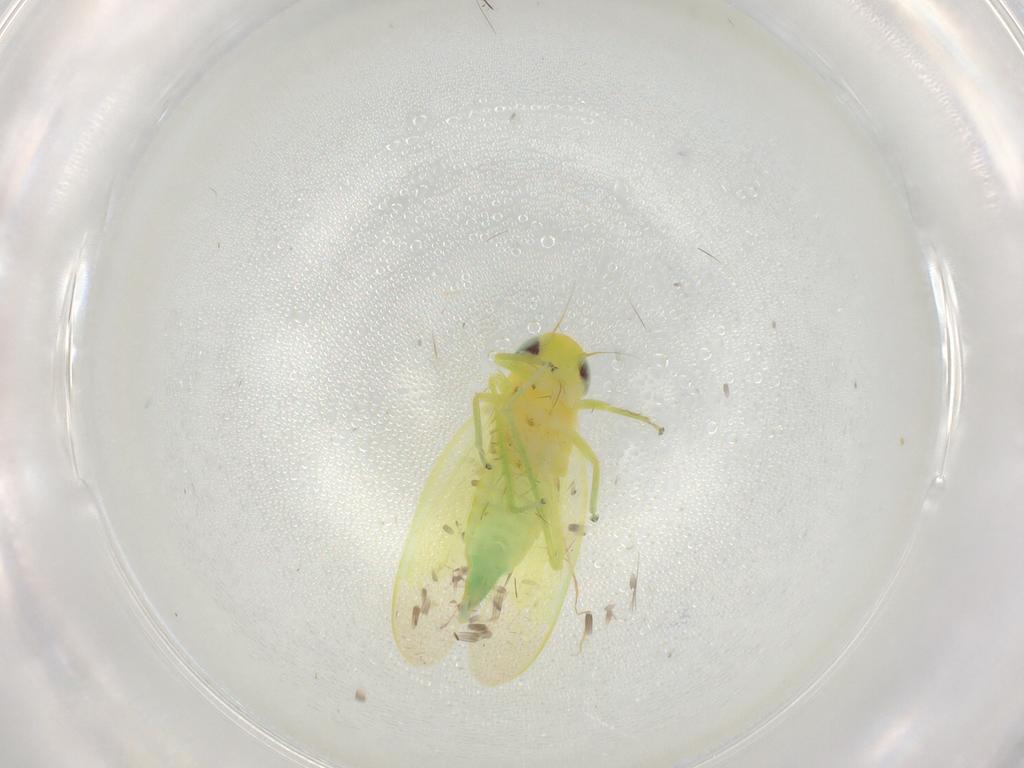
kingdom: Animalia
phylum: Arthropoda
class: Insecta
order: Hemiptera
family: Cicadellidae
